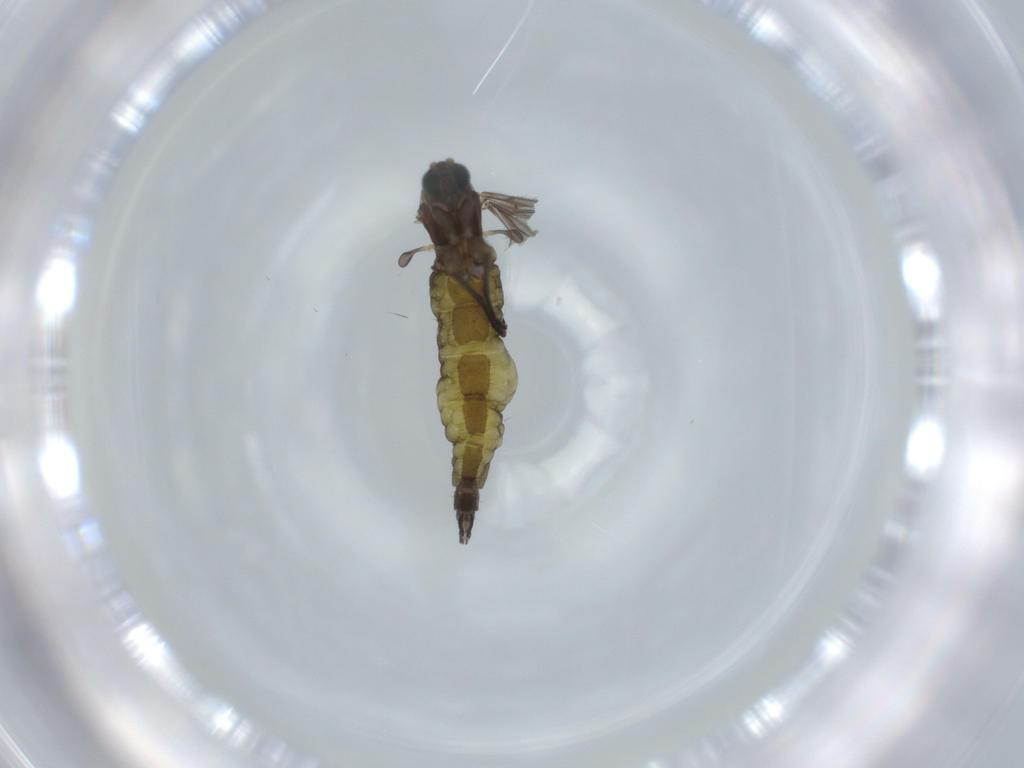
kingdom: Animalia
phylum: Arthropoda
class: Insecta
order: Diptera
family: Sciaridae
